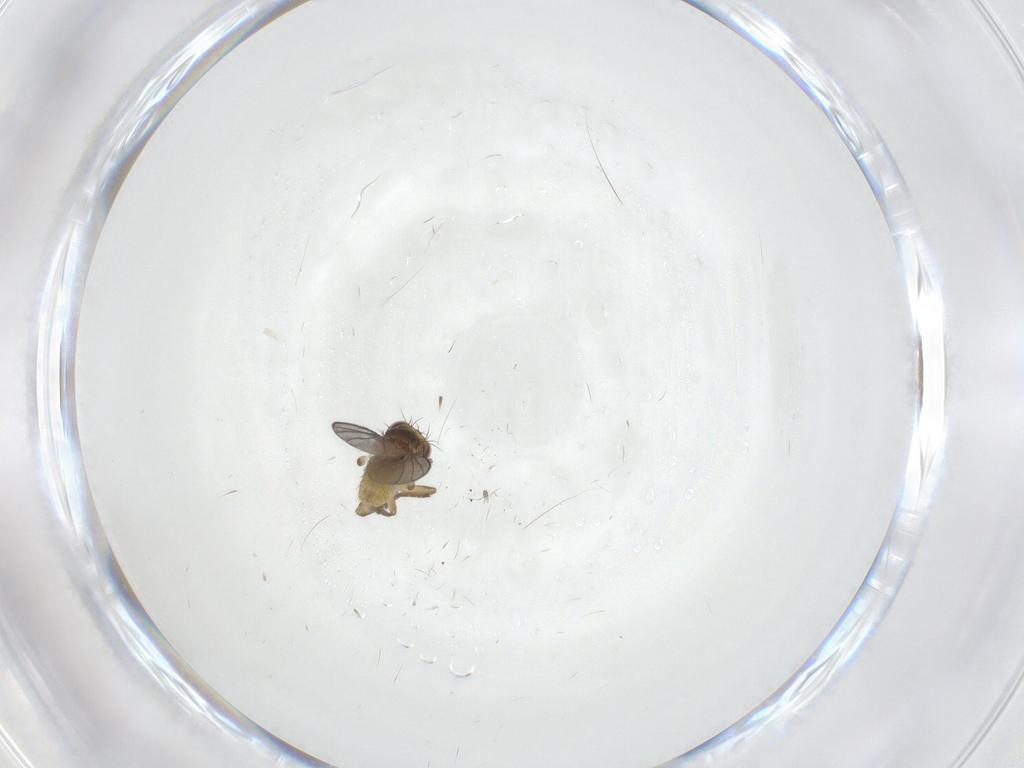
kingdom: Animalia
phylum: Arthropoda
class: Insecta
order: Diptera
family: Agromyzidae
